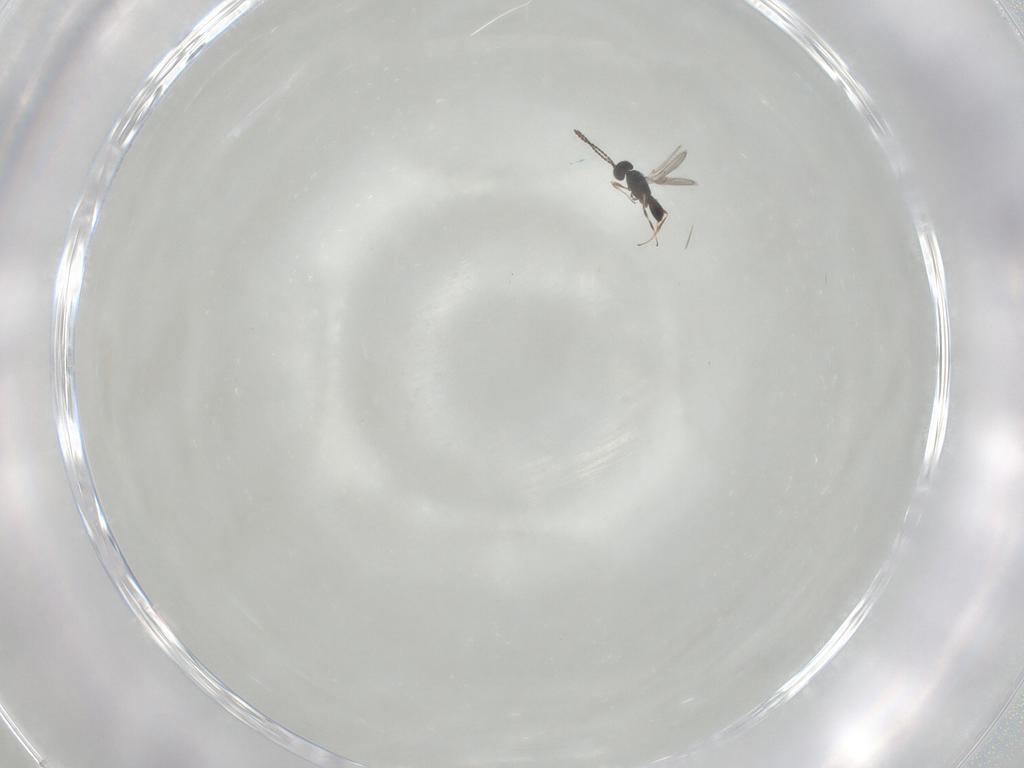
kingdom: Animalia
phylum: Arthropoda
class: Insecta
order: Hymenoptera
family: Scelionidae
